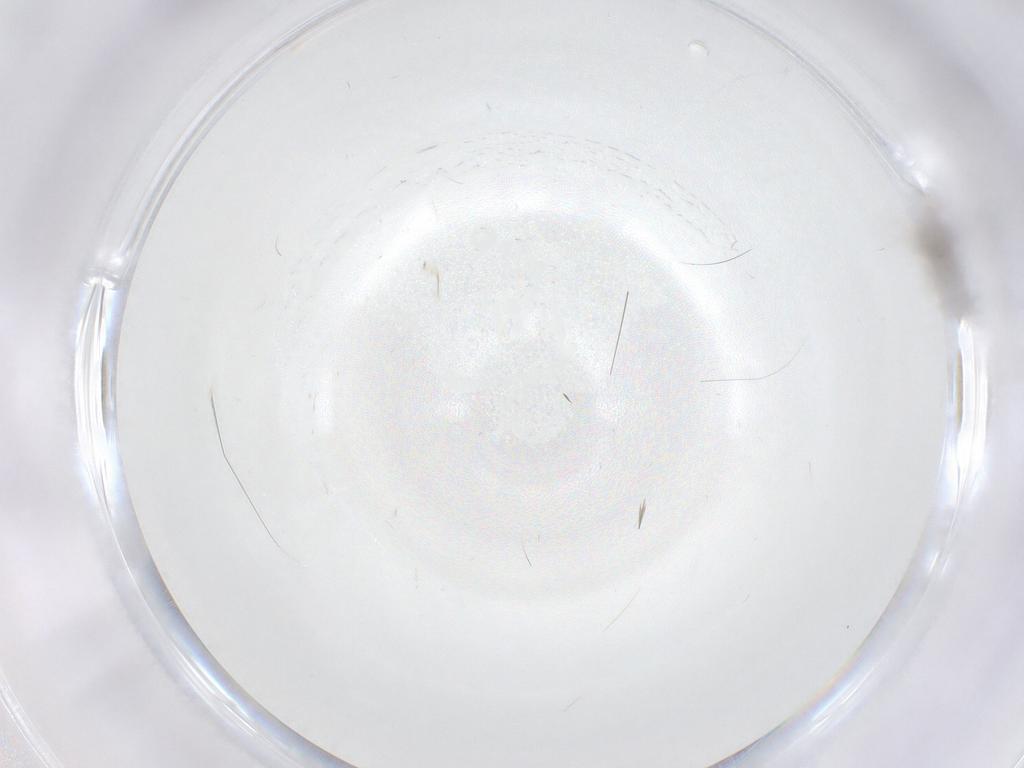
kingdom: Animalia
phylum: Arthropoda
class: Insecta
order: Diptera
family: Cecidomyiidae
